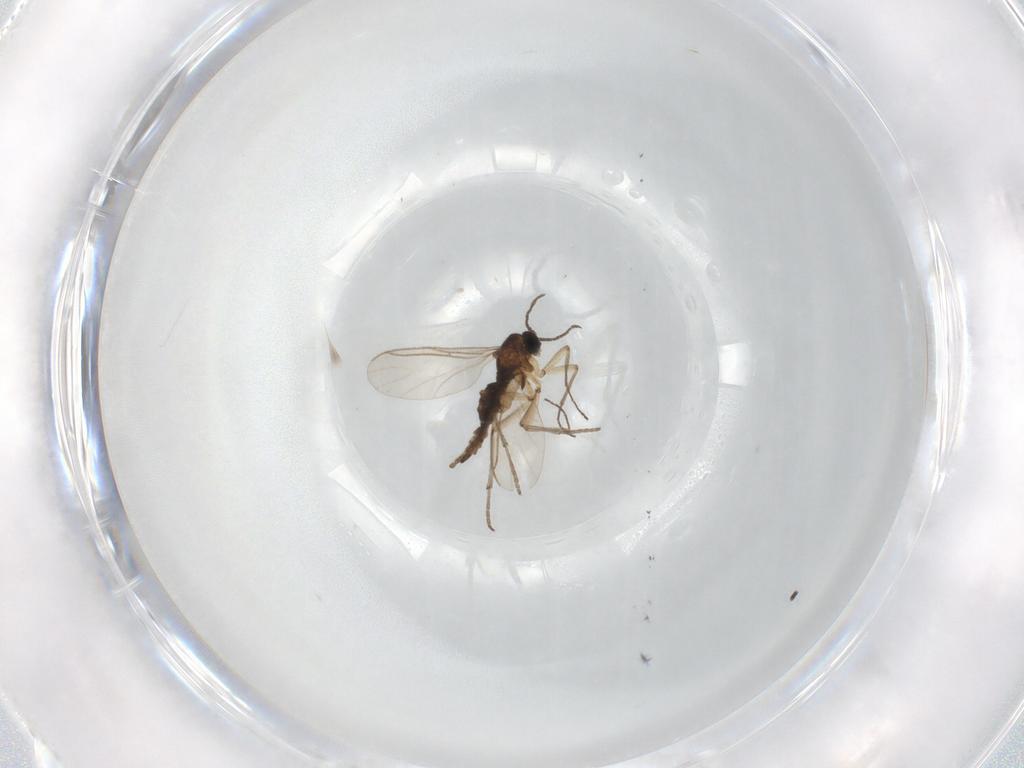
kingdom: Animalia
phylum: Arthropoda
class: Insecta
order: Diptera
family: Sciaridae
